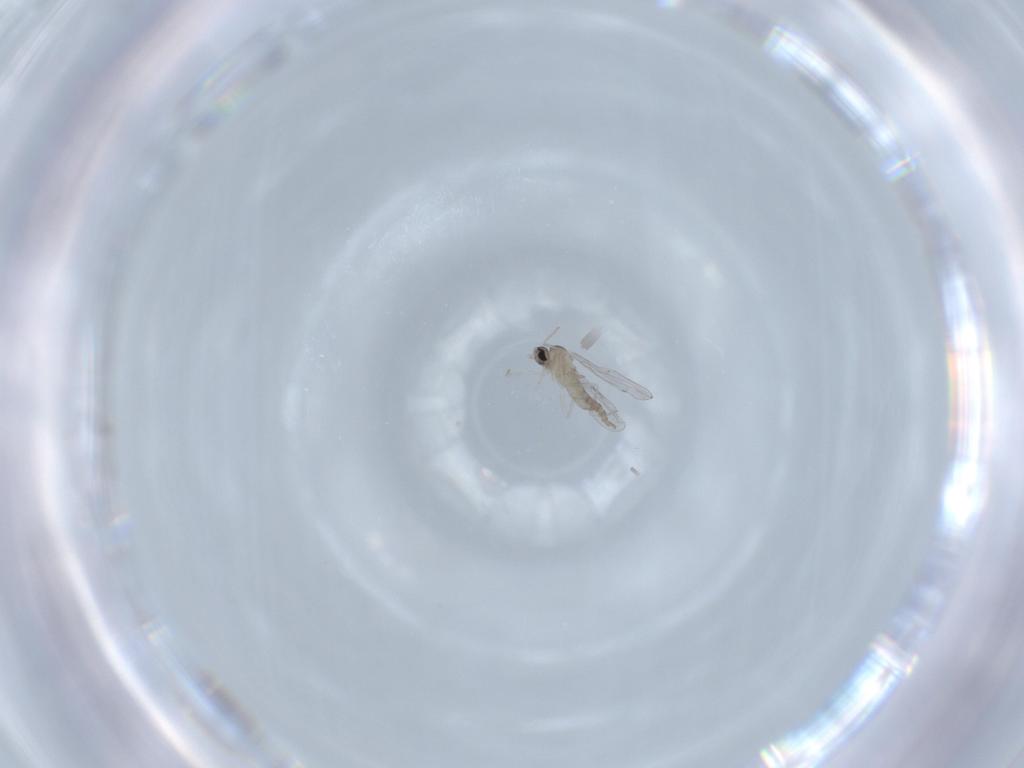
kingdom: Animalia
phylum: Arthropoda
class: Insecta
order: Diptera
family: Cecidomyiidae
